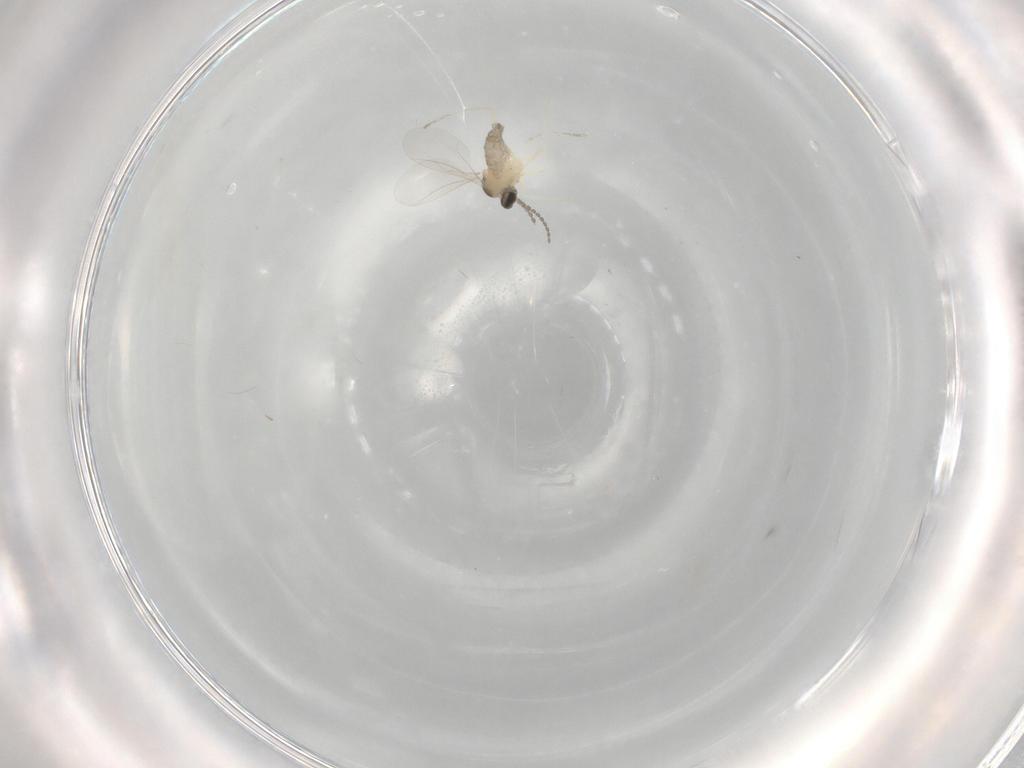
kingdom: Animalia
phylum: Arthropoda
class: Insecta
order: Diptera
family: Cecidomyiidae
